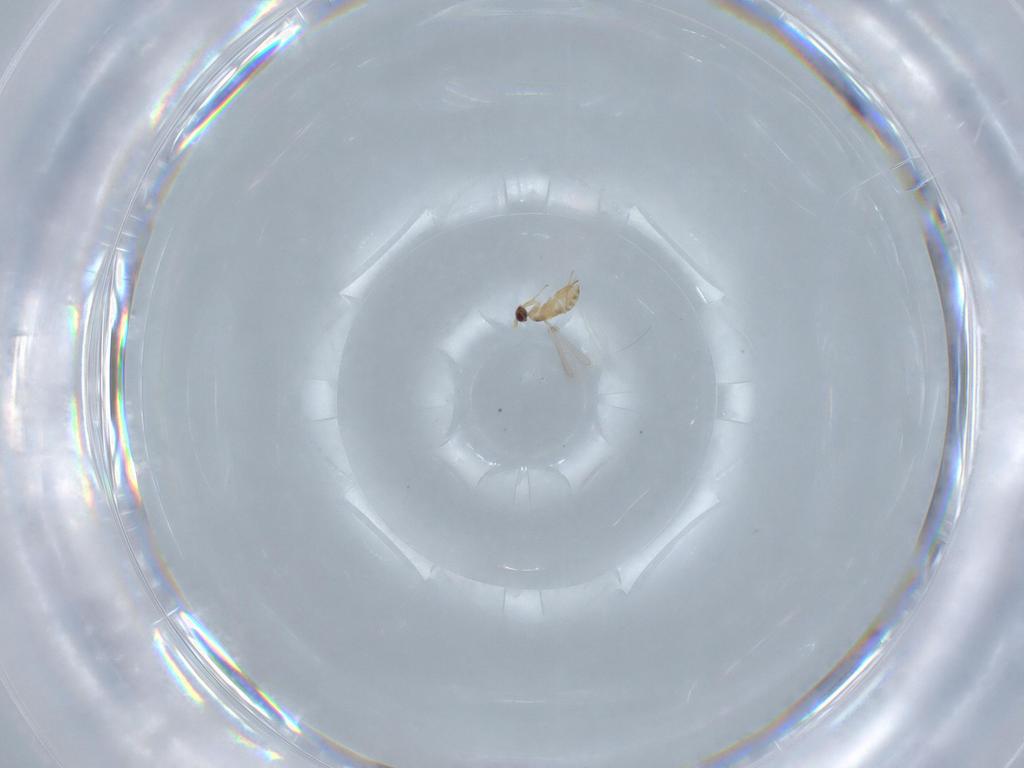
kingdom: Animalia
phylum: Arthropoda
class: Insecta
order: Hymenoptera
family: Mymaridae
